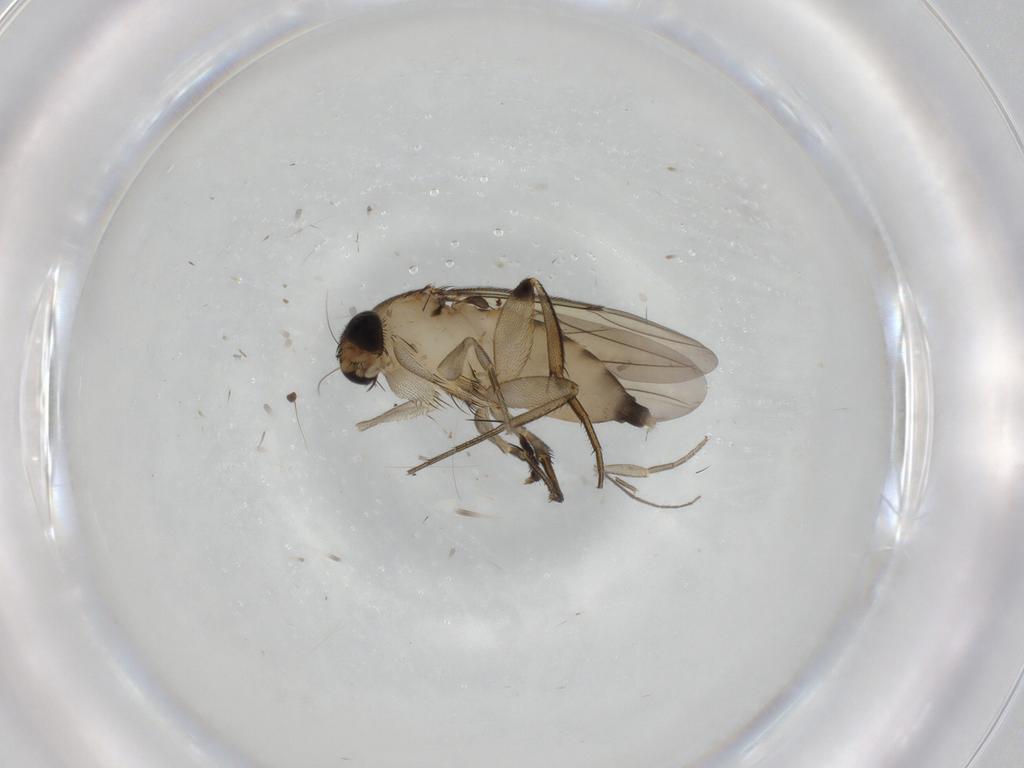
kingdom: Animalia
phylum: Arthropoda
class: Insecta
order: Diptera
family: Phoridae
